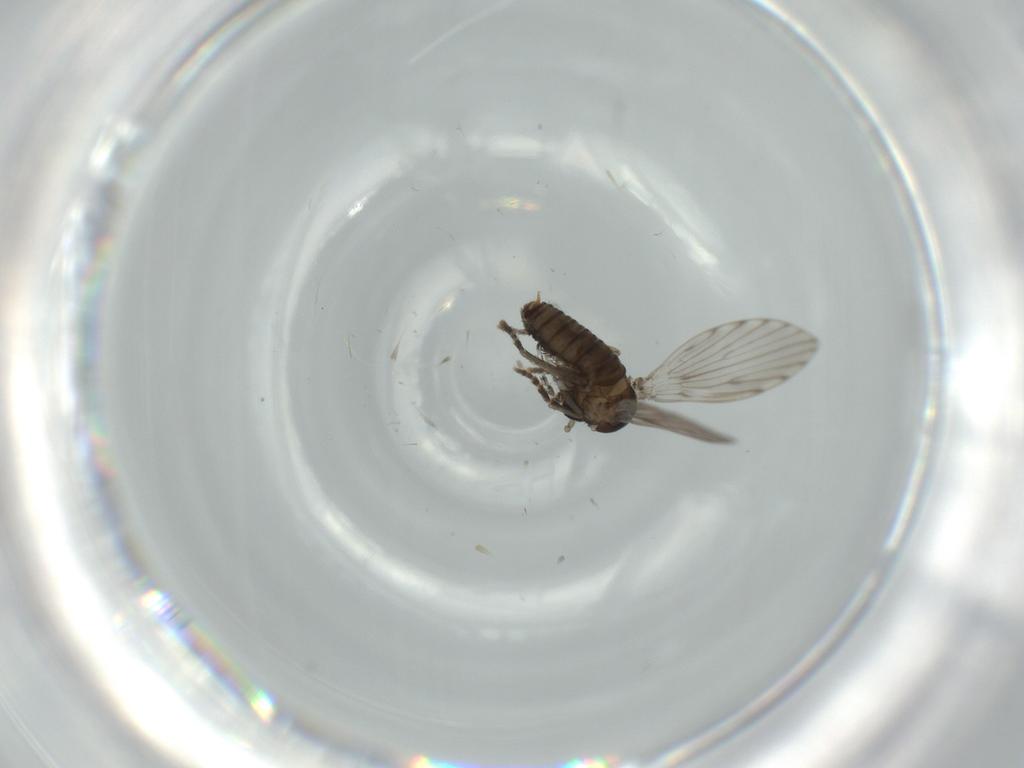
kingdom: Animalia
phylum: Arthropoda
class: Insecta
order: Diptera
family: Psychodidae
